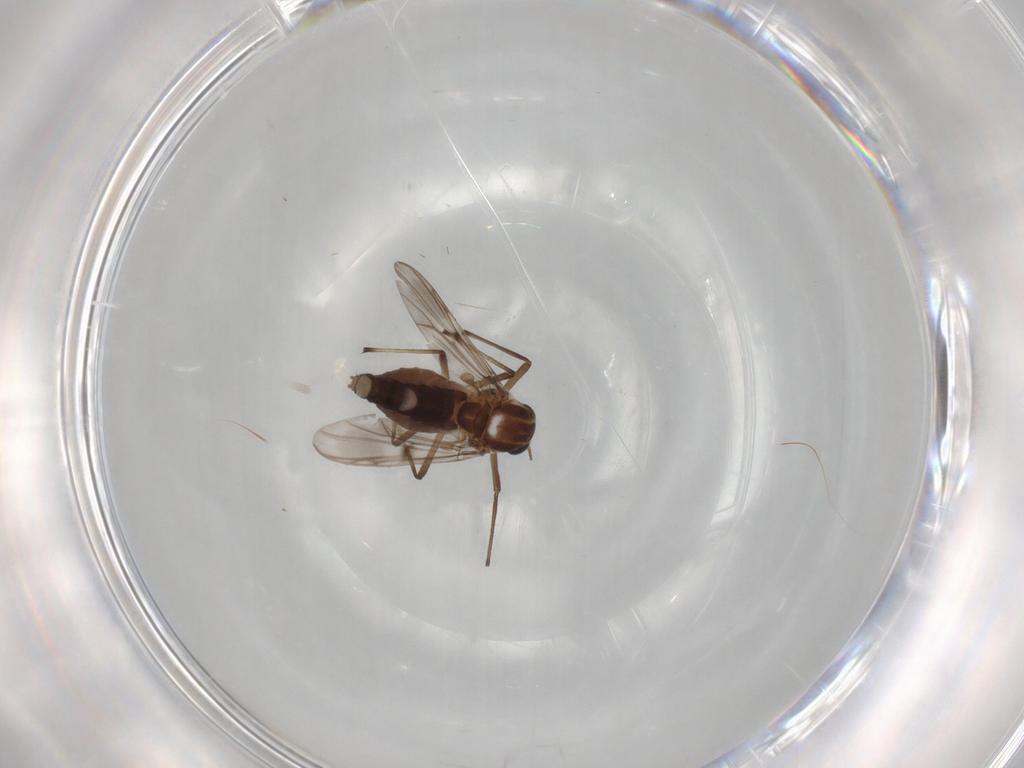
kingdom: Animalia
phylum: Arthropoda
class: Insecta
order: Diptera
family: Chironomidae
